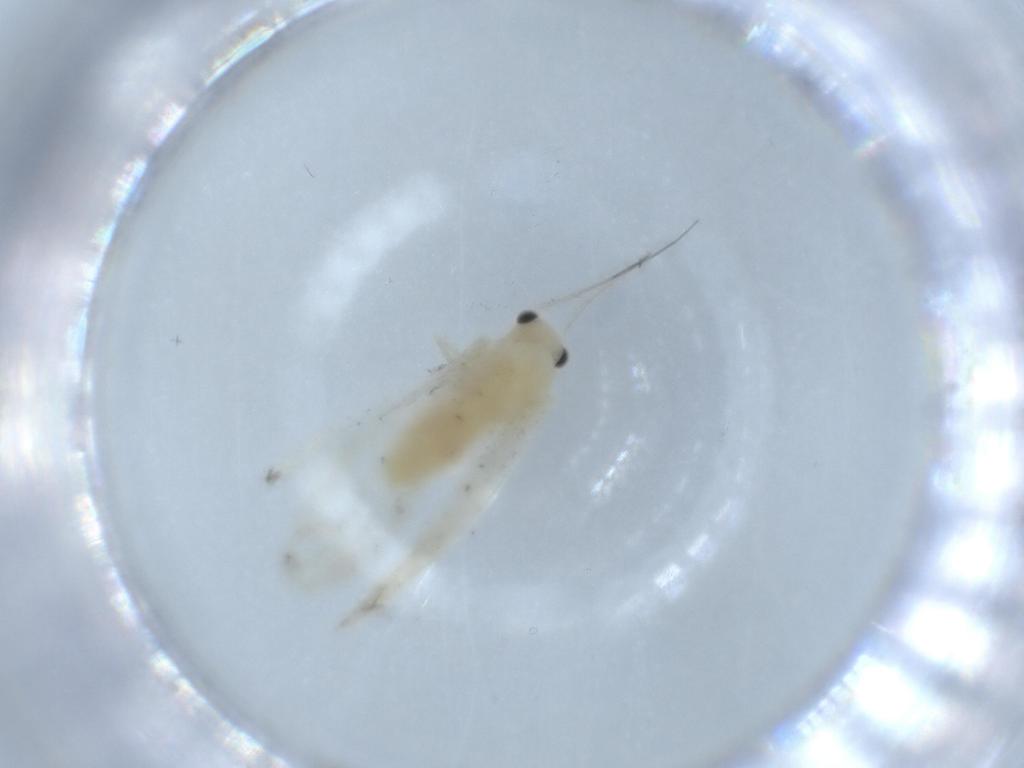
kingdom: Animalia
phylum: Arthropoda
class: Insecta
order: Psocodea
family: Caeciliusidae
